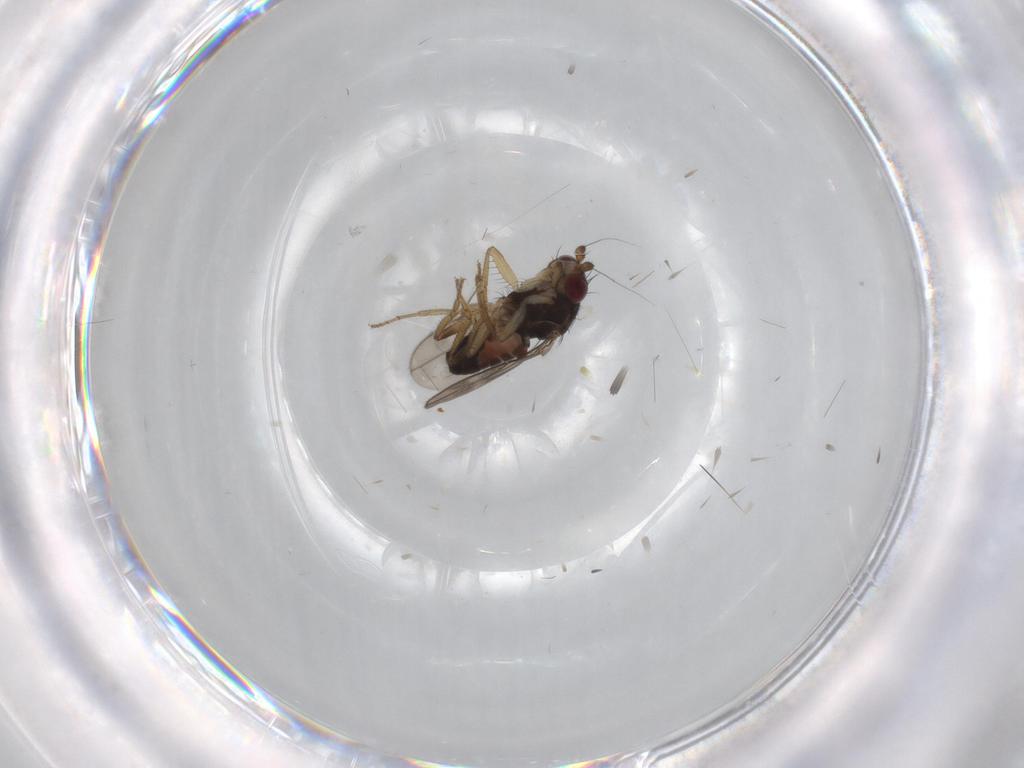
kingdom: Animalia
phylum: Arthropoda
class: Insecta
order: Diptera
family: Sphaeroceridae
